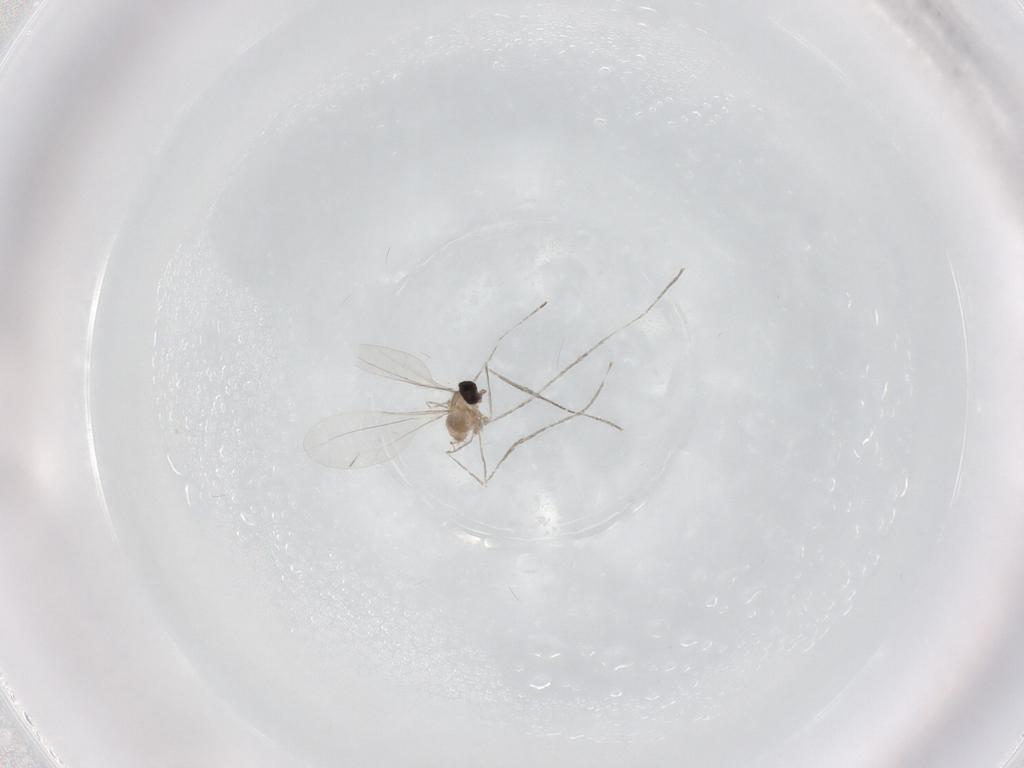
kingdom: Animalia
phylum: Arthropoda
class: Insecta
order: Diptera
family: Cecidomyiidae
